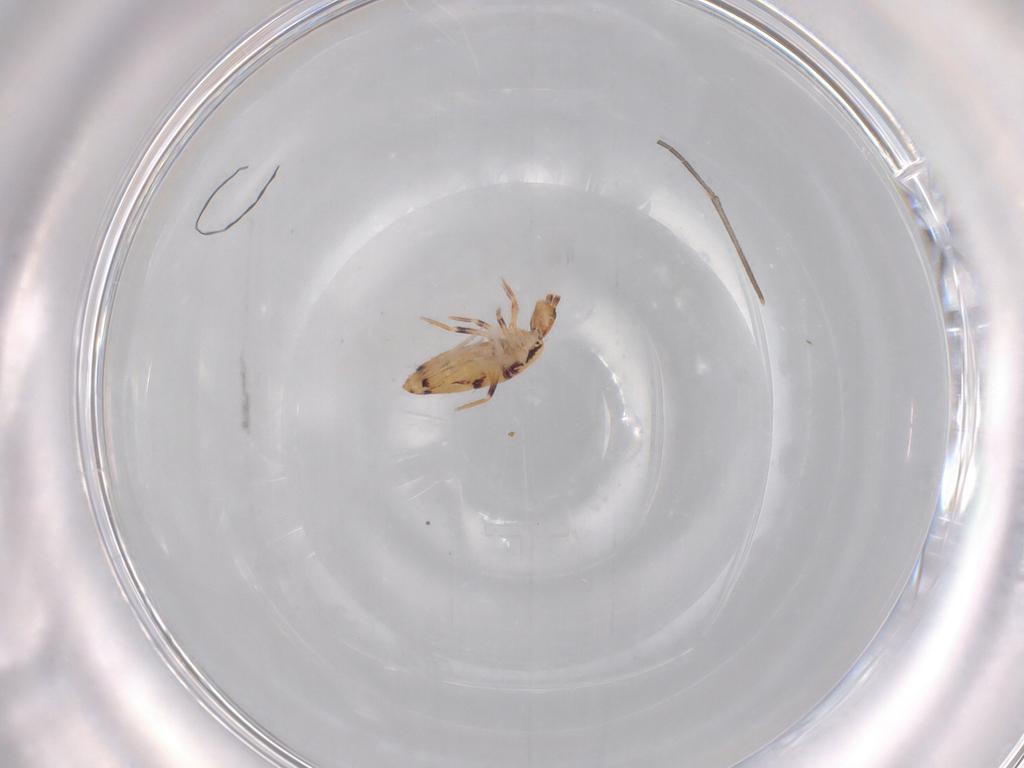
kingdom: Animalia
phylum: Arthropoda
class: Collembola
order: Entomobryomorpha
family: Entomobryidae
